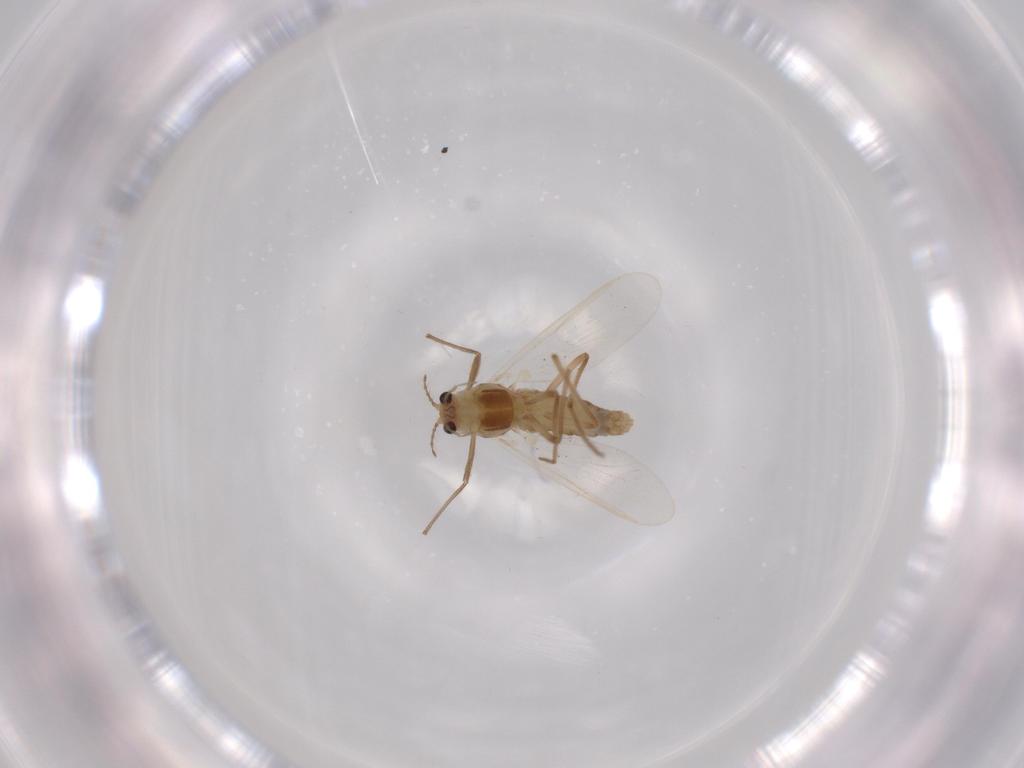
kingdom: Animalia
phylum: Arthropoda
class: Insecta
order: Diptera
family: Chironomidae
